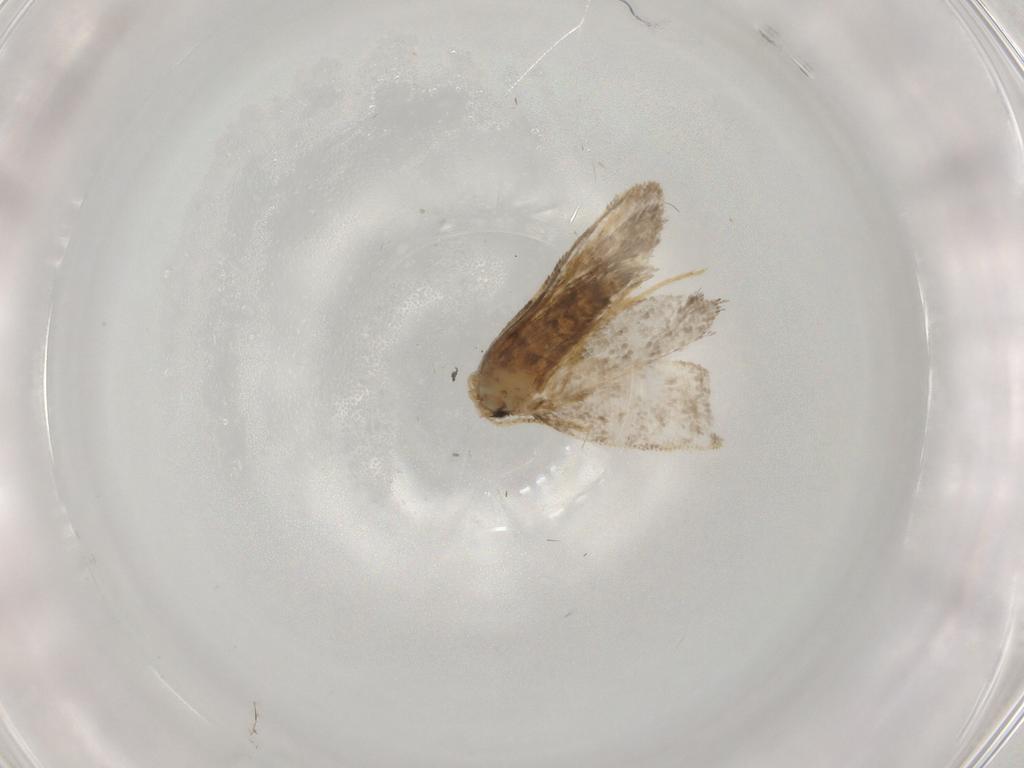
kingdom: Animalia
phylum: Arthropoda
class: Insecta
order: Lepidoptera
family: Psychidae
